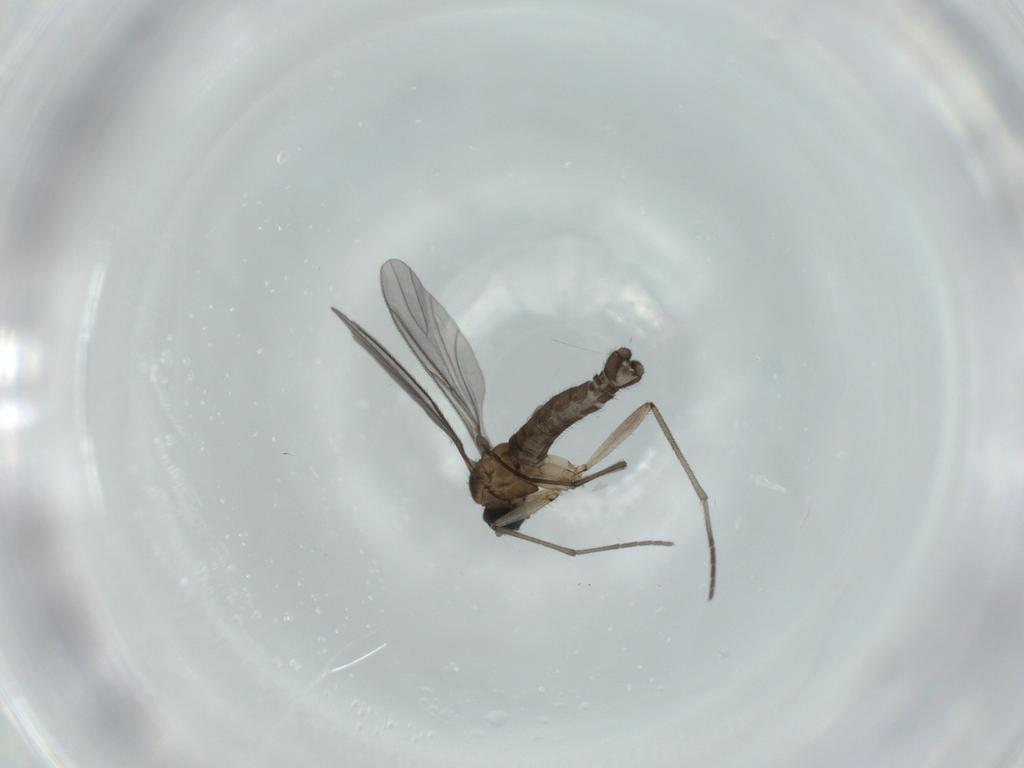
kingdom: Animalia
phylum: Arthropoda
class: Insecta
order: Diptera
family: Sciaridae
